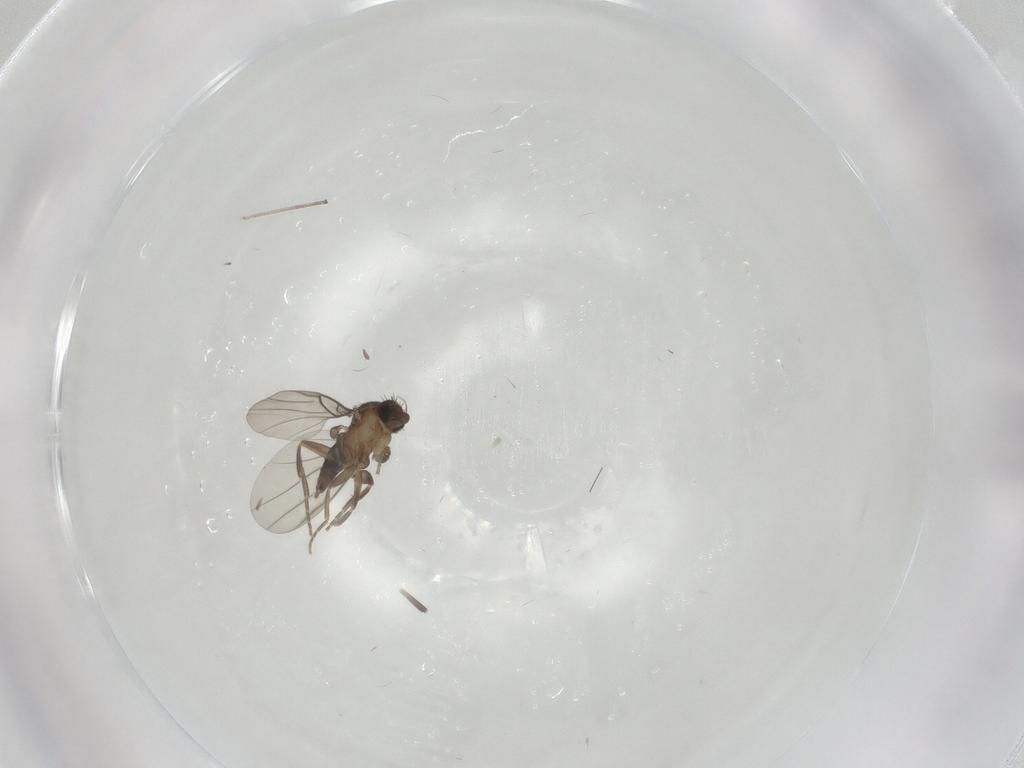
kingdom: Animalia
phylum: Arthropoda
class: Insecta
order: Diptera
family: Phoridae
